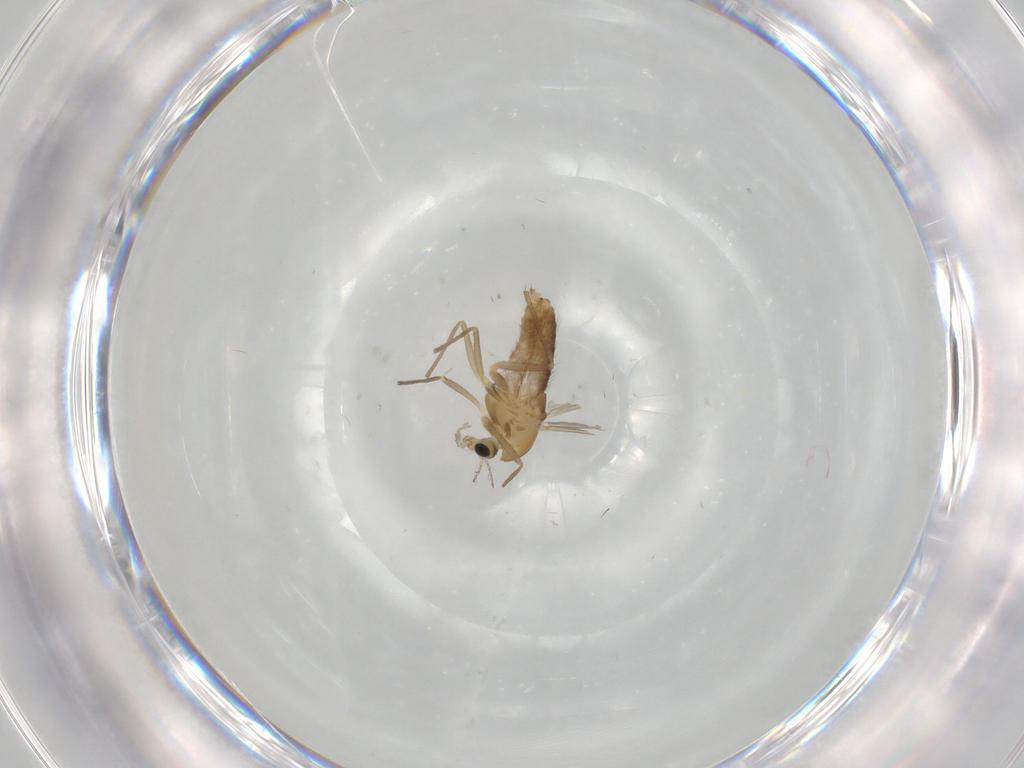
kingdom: Animalia
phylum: Arthropoda
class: Insecta
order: Diptera
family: Chironomidae
